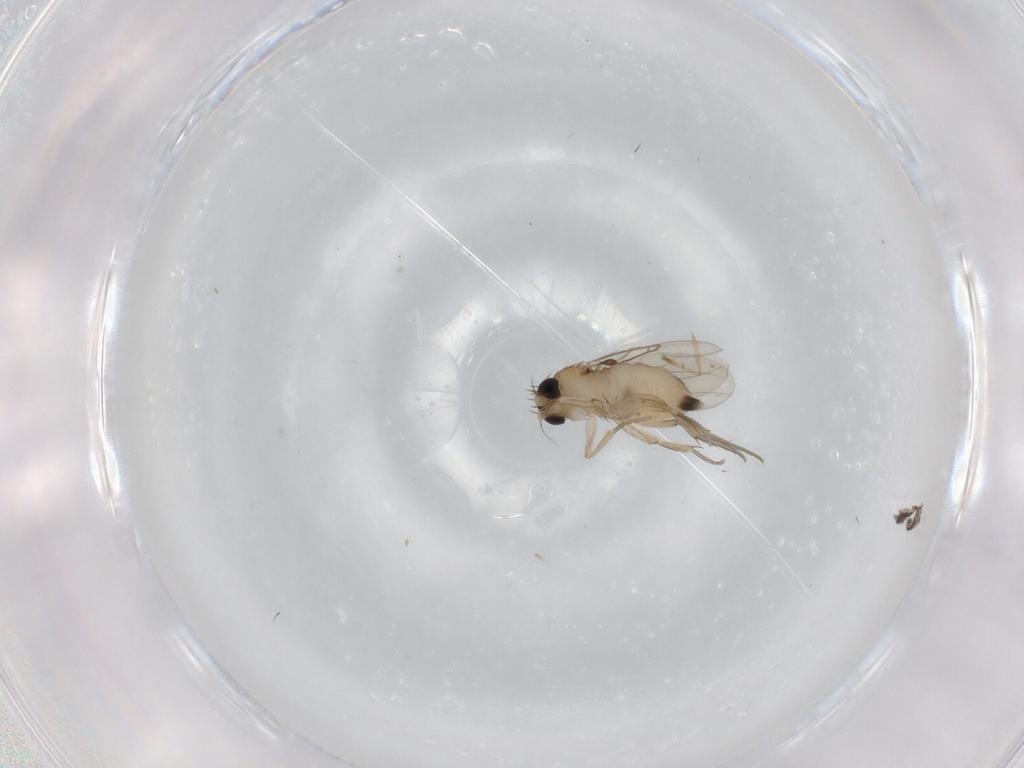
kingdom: Animalia
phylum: Arthropoda
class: Insecta
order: Diptera
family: Phoridae
